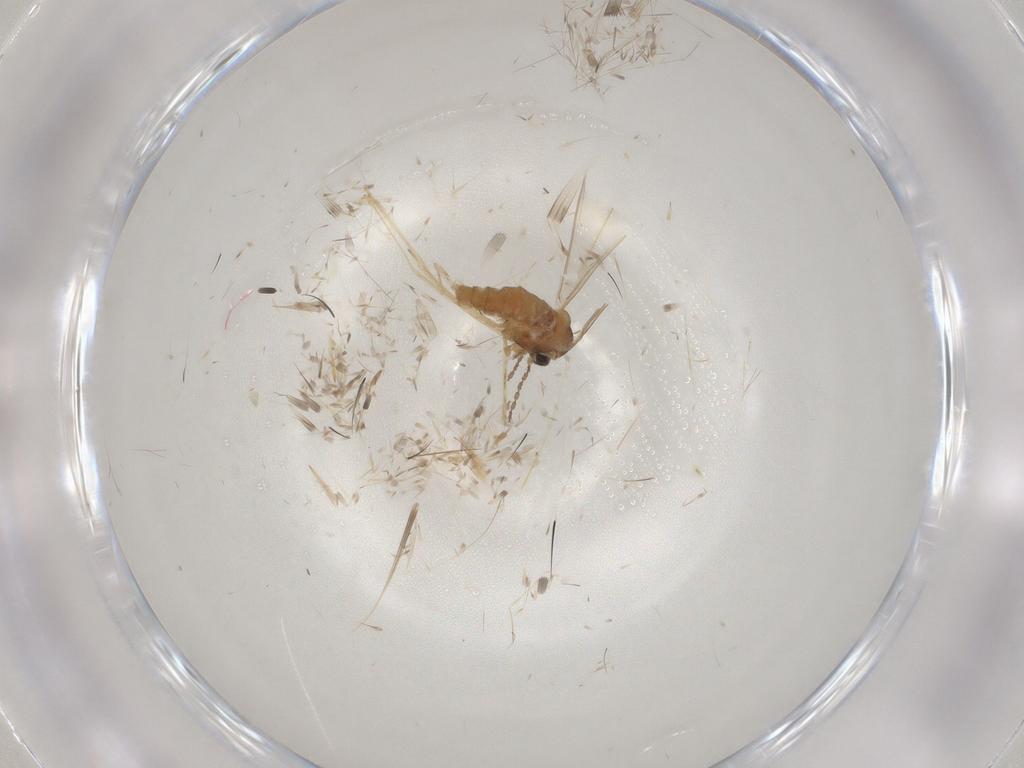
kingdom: Animalia
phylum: Arthropoda
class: Insecta
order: Diptera
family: Cecidomyiidae
